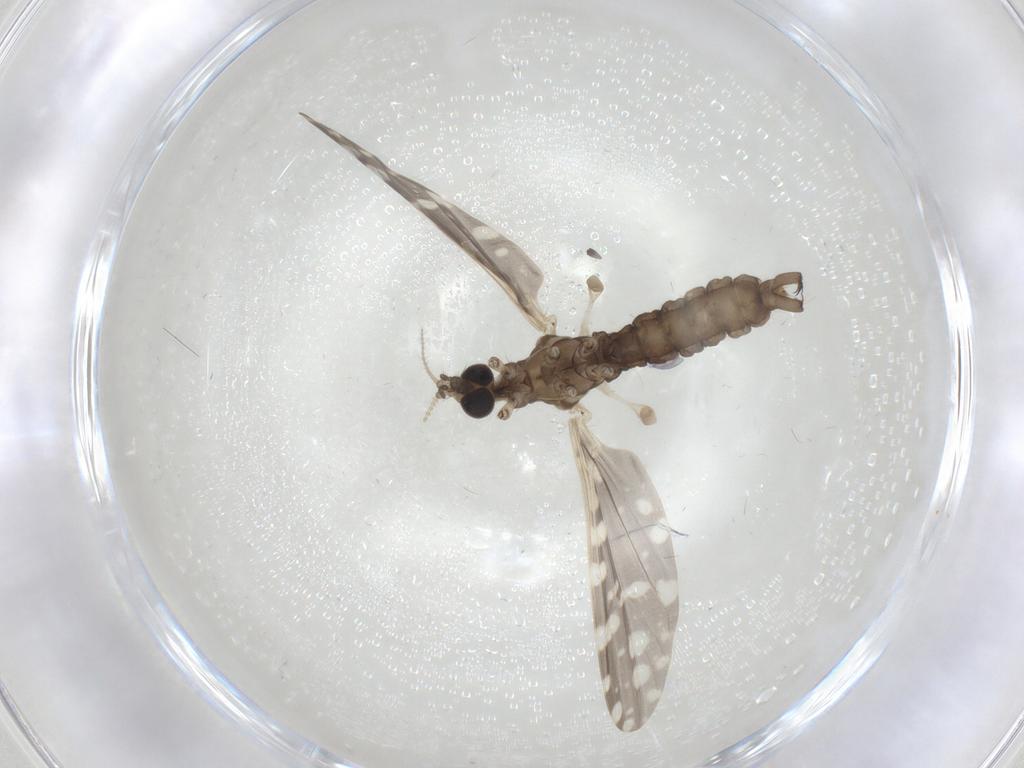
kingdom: Animalia
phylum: Arthropoda
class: Insecta
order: Diptera
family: Limoniidae
